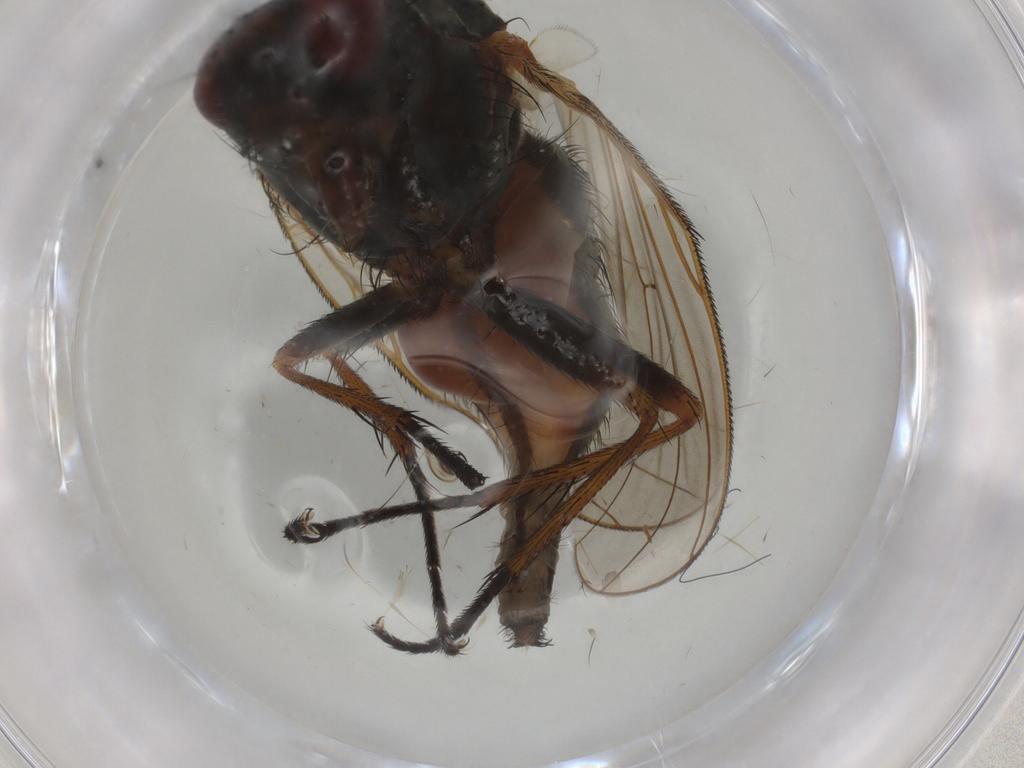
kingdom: Animalia
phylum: Arthropoda
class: Insecta
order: Diptera
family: Anthomyiidae
